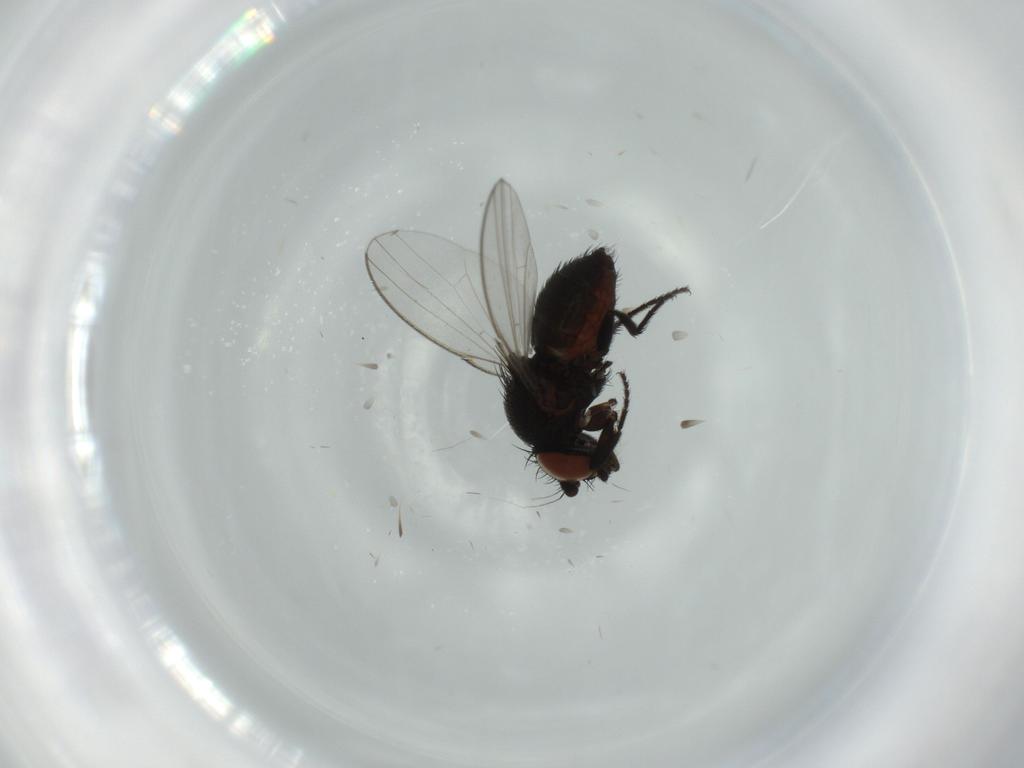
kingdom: Animalia
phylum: Arthropoda
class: Insecta
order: Diptera
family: Milichiidae
